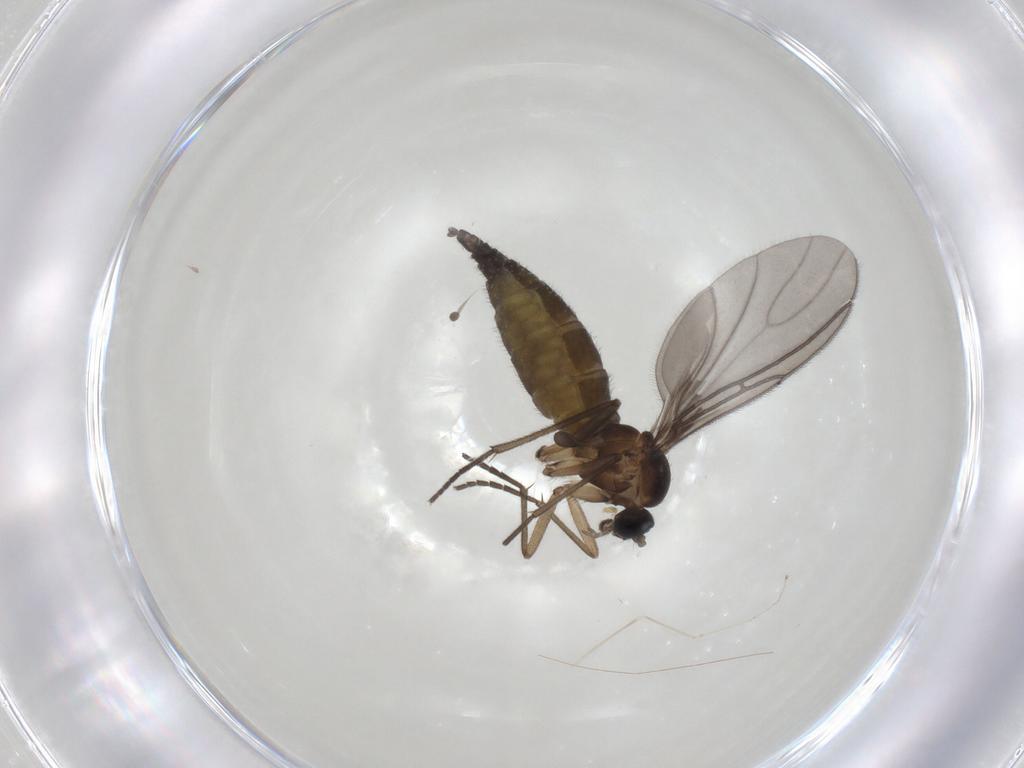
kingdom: Animalia
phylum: Arthropoda
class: Insecta
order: Diptera
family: Sciaridae
